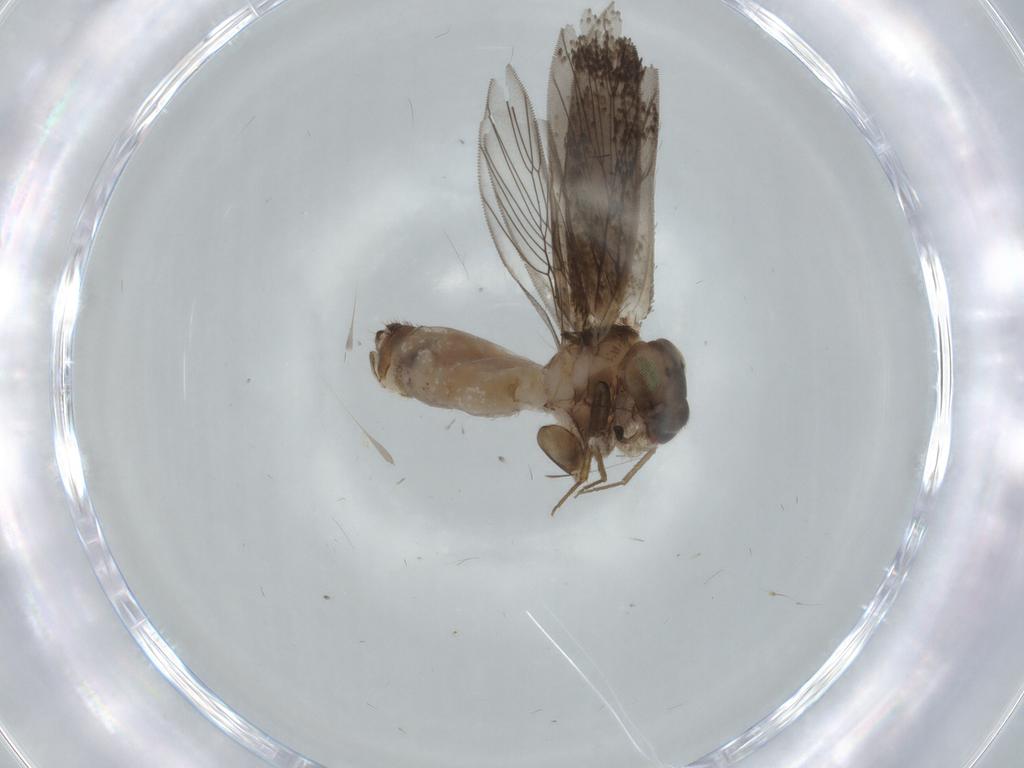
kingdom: Animalia
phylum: Arthropoda
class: Insecta
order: Psocodea
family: Lepidopsocidae
